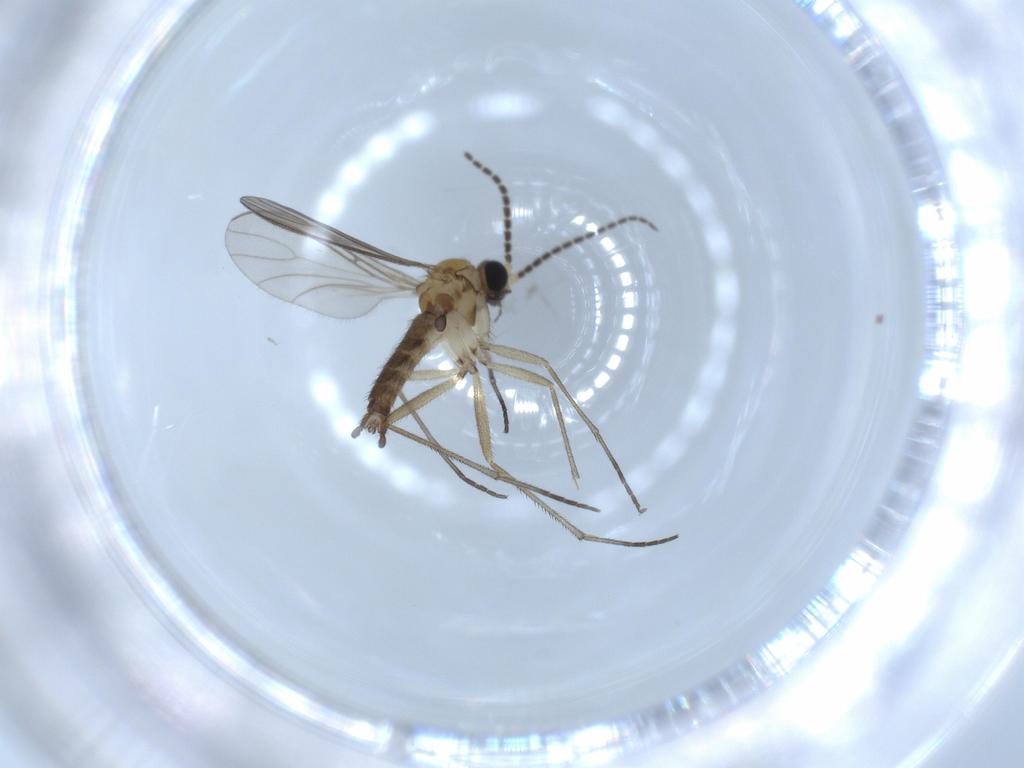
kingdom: Animalia
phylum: Arthropoda
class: Insecta
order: Diptera
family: Sciaridae
